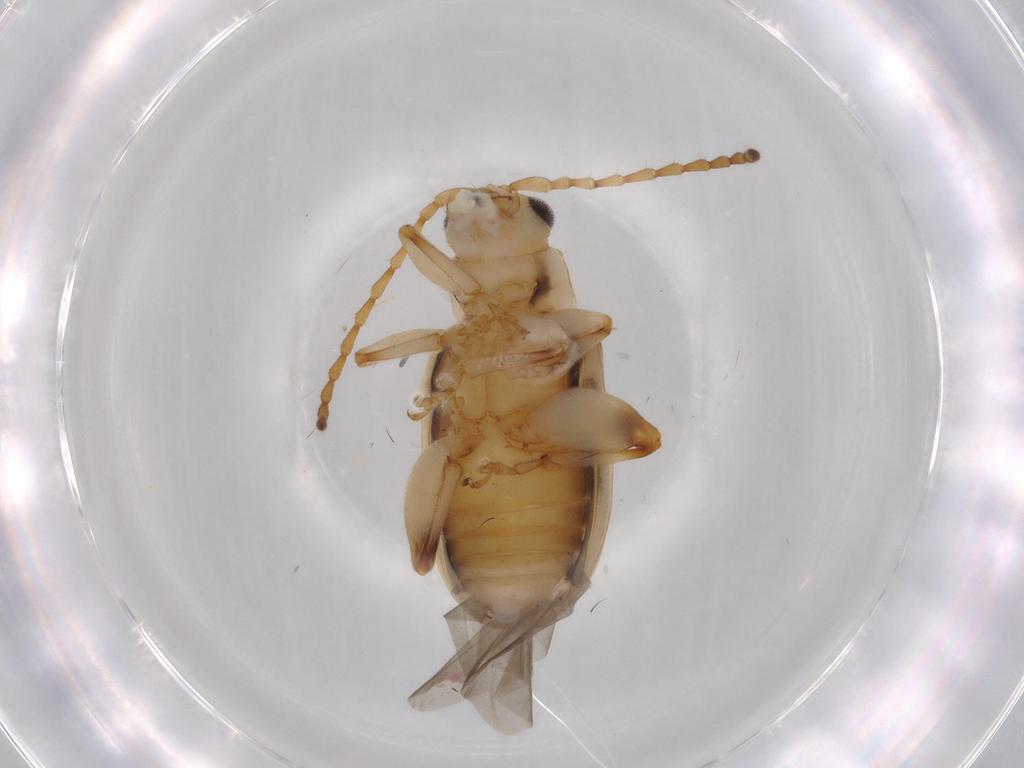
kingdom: Animalia
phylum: Arthropoda
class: Insecta
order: Coleoptera
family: Chrysomelidae
